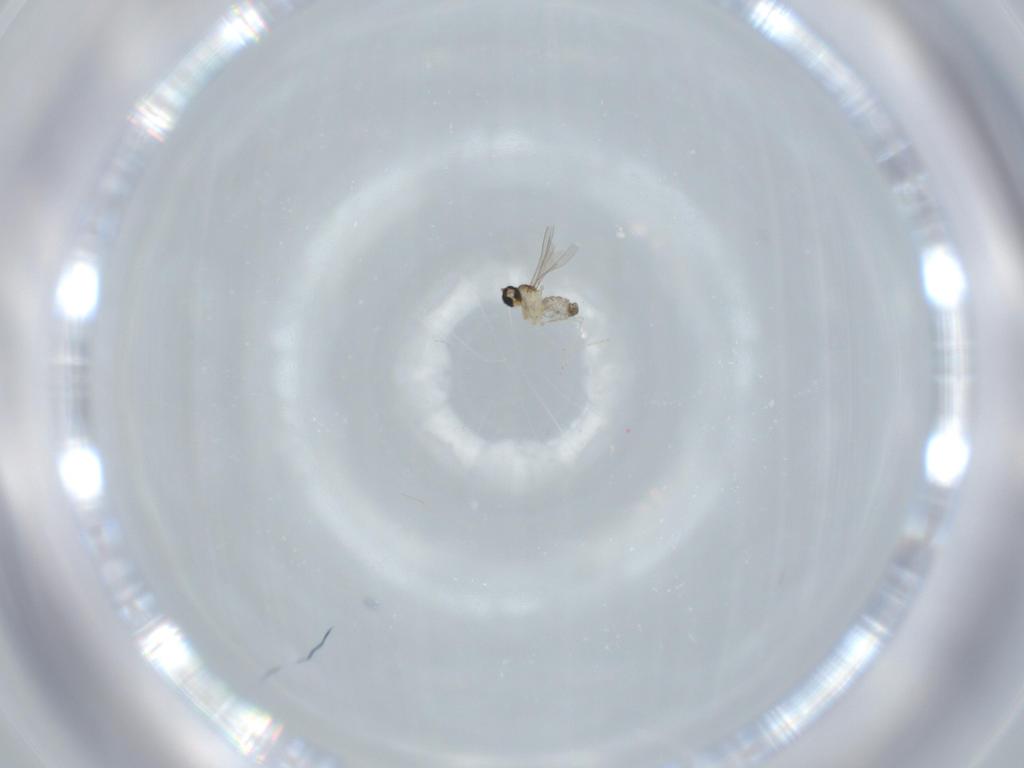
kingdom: Animalia
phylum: Arthropoda
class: Insecta
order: Diptera
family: Cecidomyiidae
